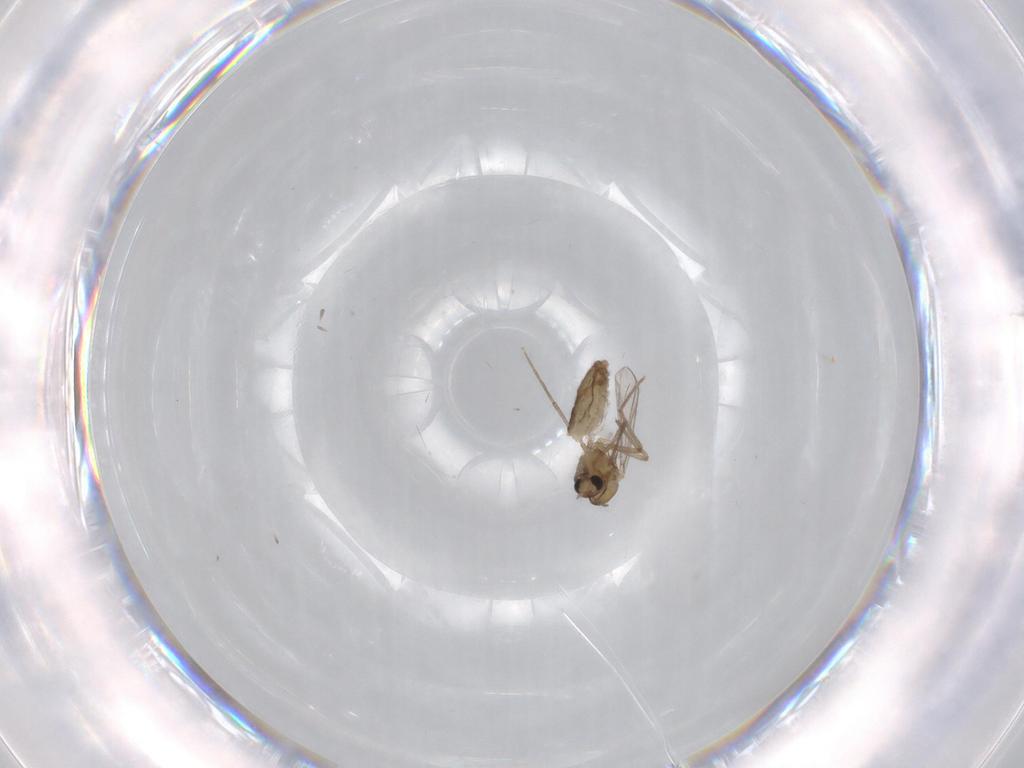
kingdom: Animalia
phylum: Arthropoda
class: Insecta
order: Diptera
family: Chironomidae
